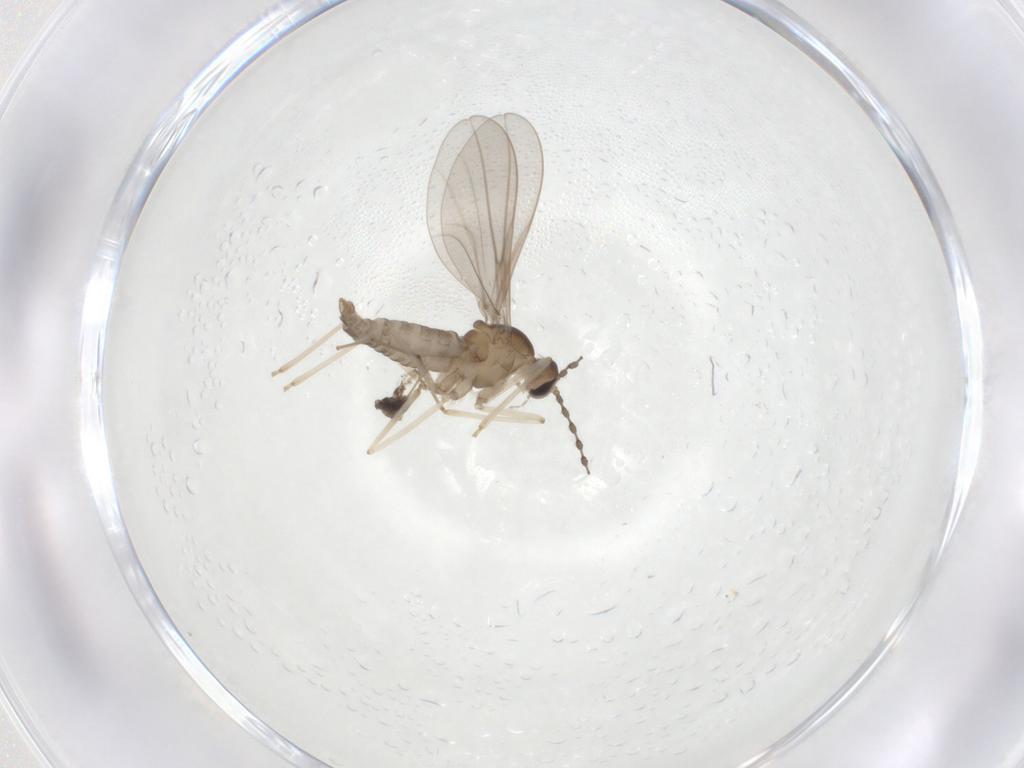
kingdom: Animalia
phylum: Arthropoda
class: Insecta
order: Diptera
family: Cecidomyiidae
